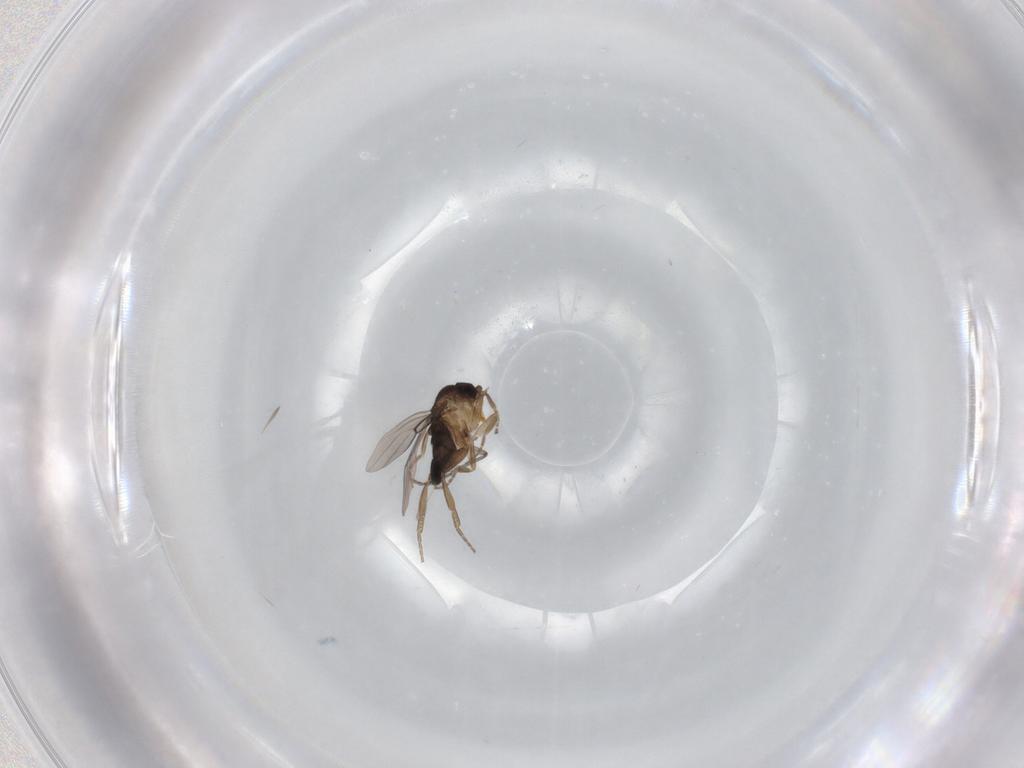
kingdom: Animalia
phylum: Arthropoda
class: Insecta
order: Diptera
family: Phoridae
